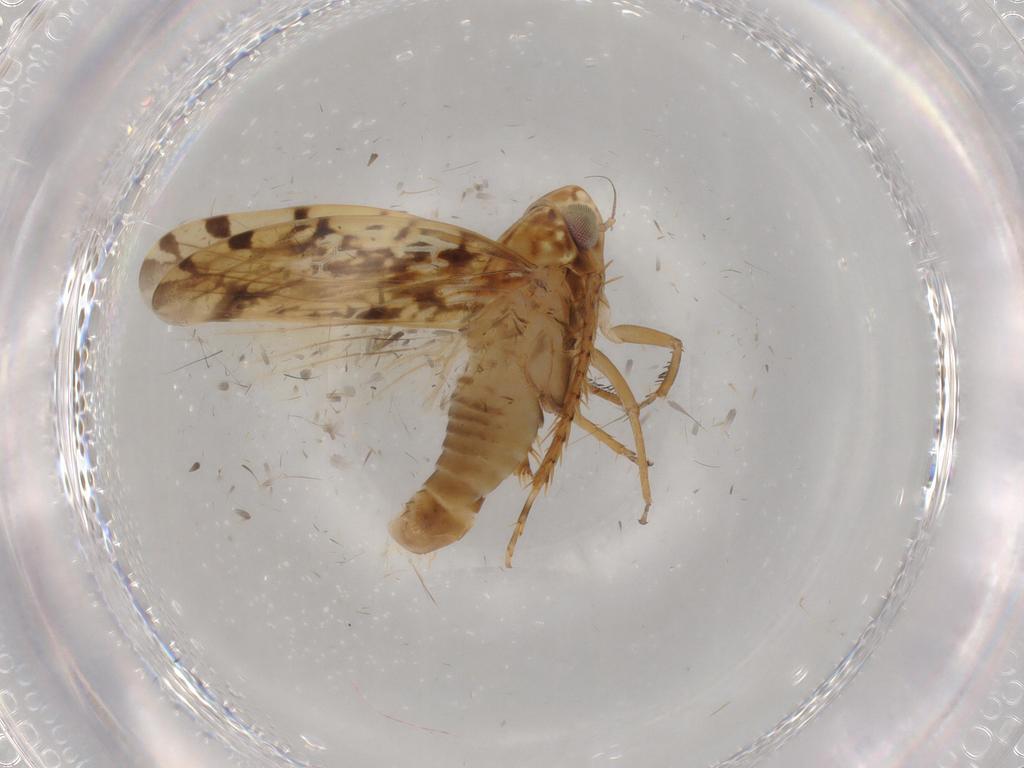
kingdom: Animalia
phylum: Arthropoda
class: Insecta
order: Hemiptera
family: Cicadellidae
